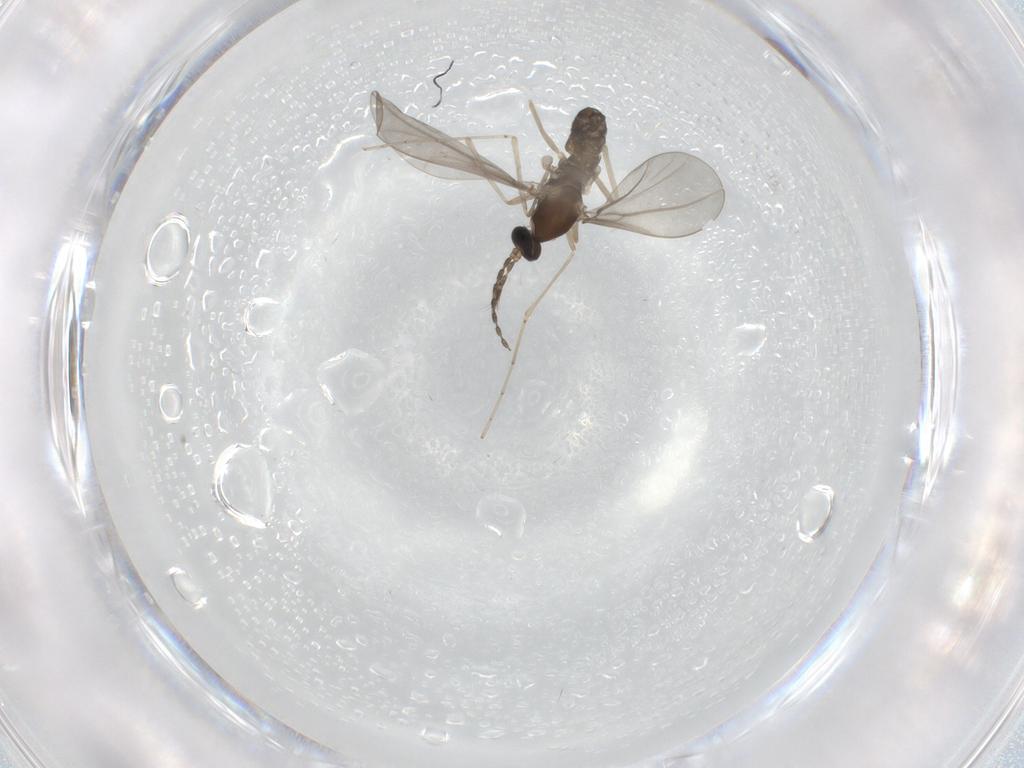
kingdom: Animalia
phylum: Arthropoda
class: Insecta
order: Diptera
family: Cecidomyiidae
